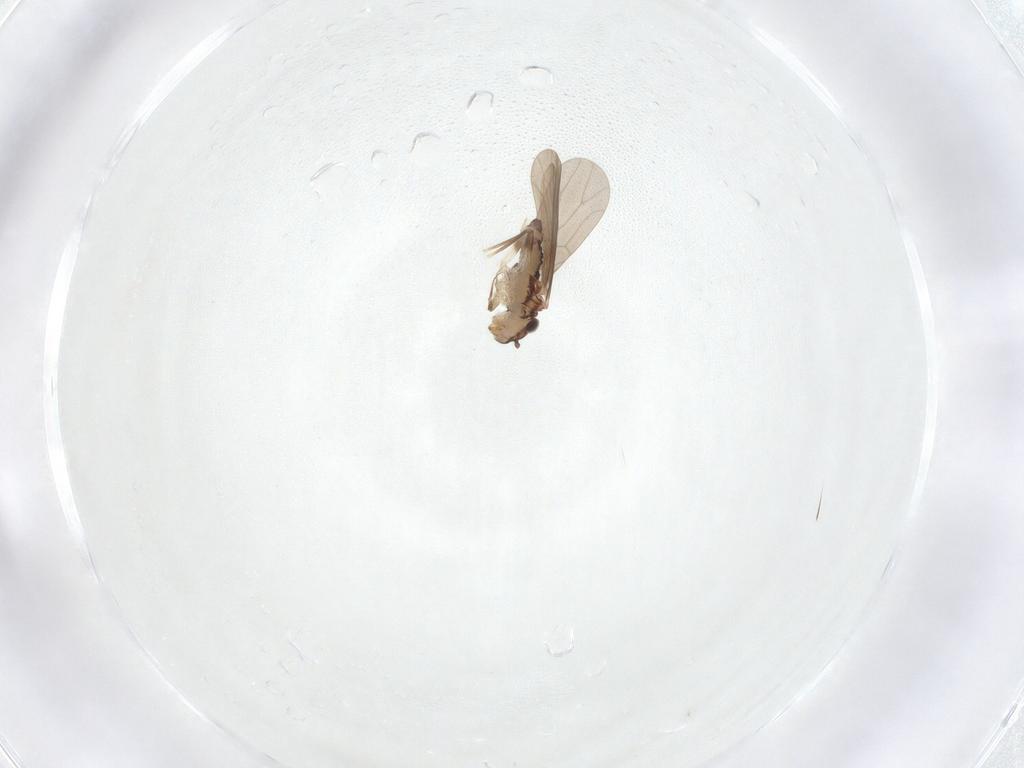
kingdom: Animalia
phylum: Arthropoda
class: Insecta
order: Psocodea
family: Lepidopsocidae
